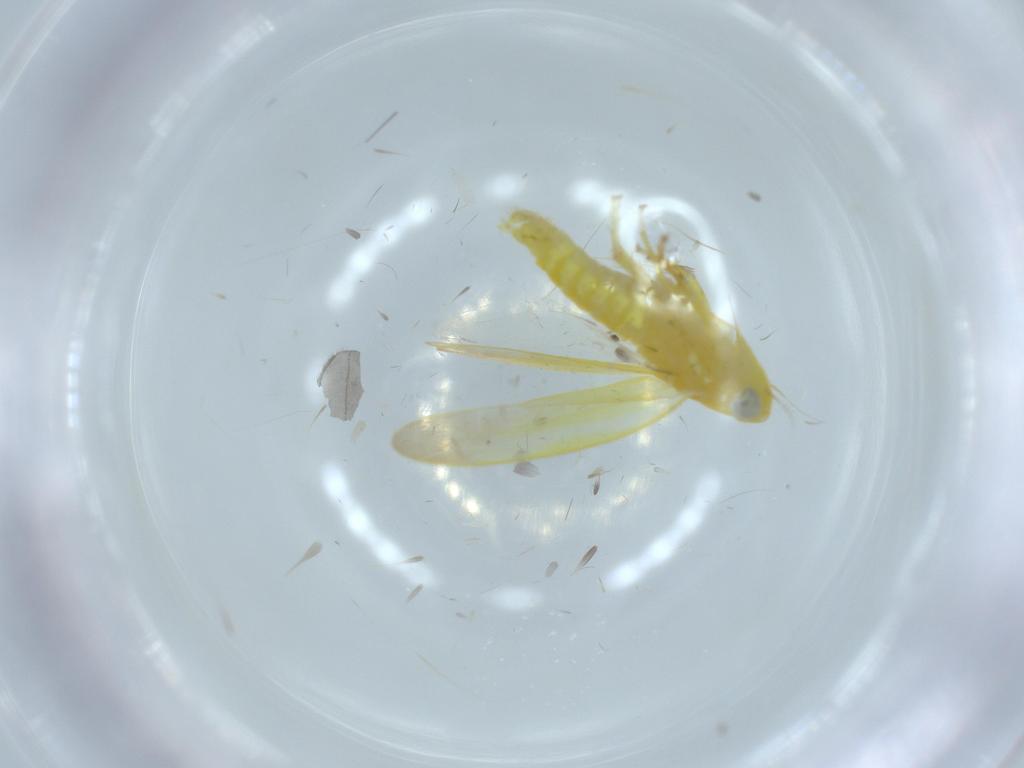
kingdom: Animalia
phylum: Arthropoda
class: Insecta
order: Hemiptera
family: Cicadellidae
